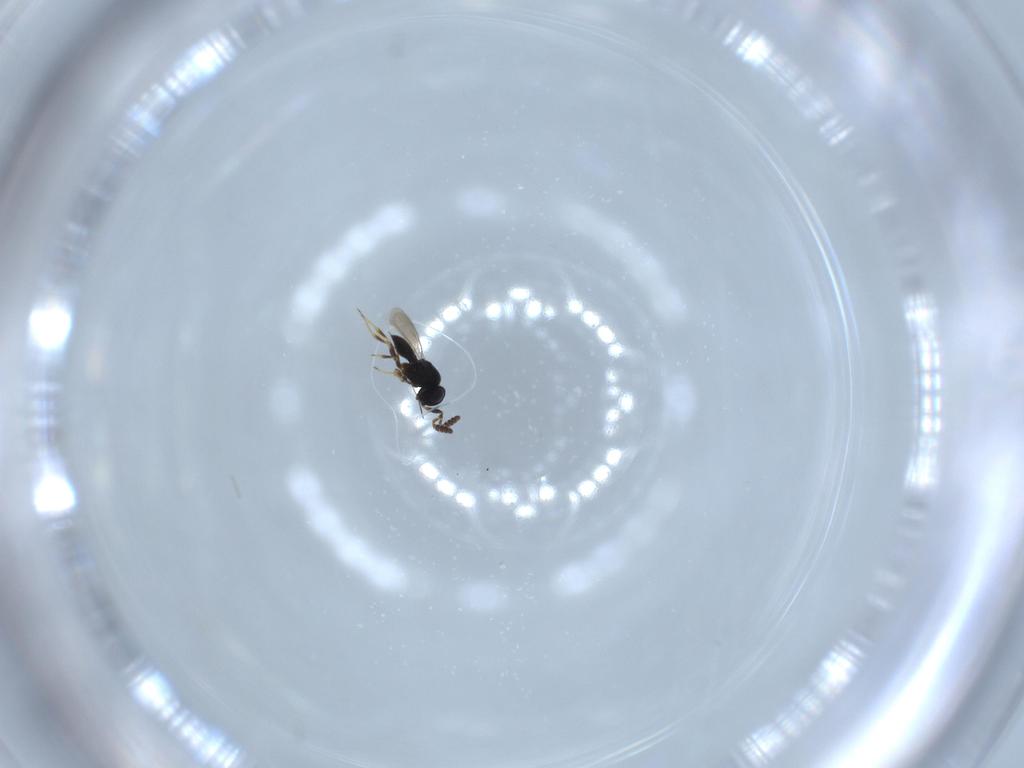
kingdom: Animalia
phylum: Arthropoda
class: Insecta
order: Hymenoptera
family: Scelionidae
